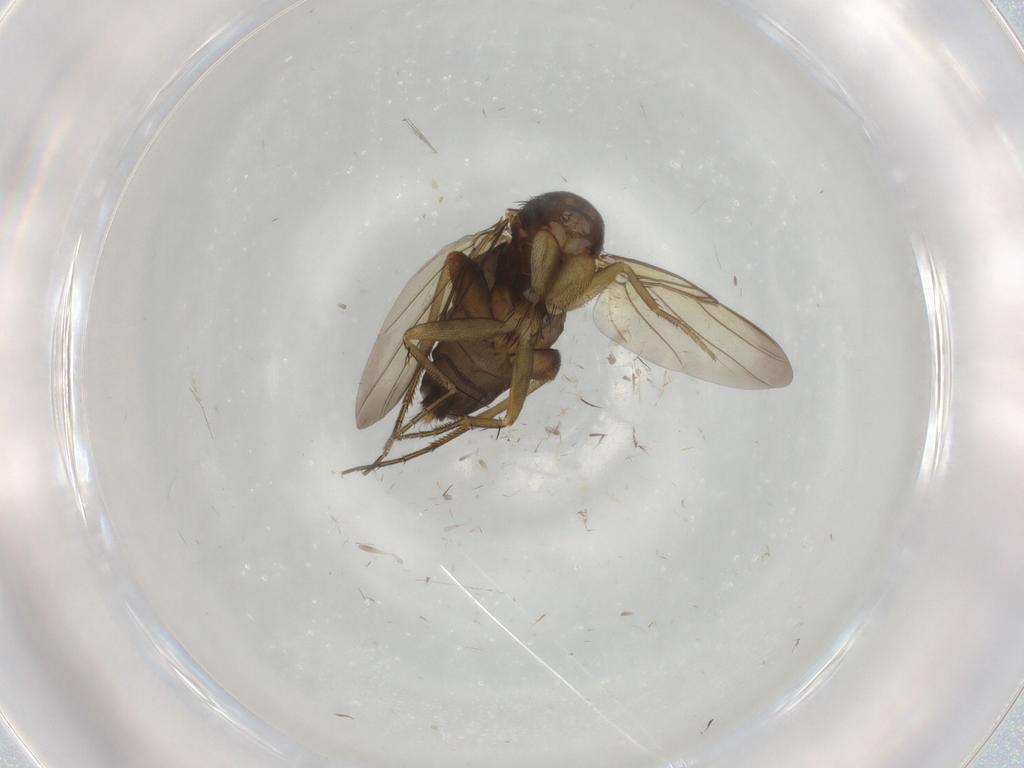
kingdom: Animalia
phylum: Arthropoda
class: Insecta
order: Diptera
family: Phoridae
